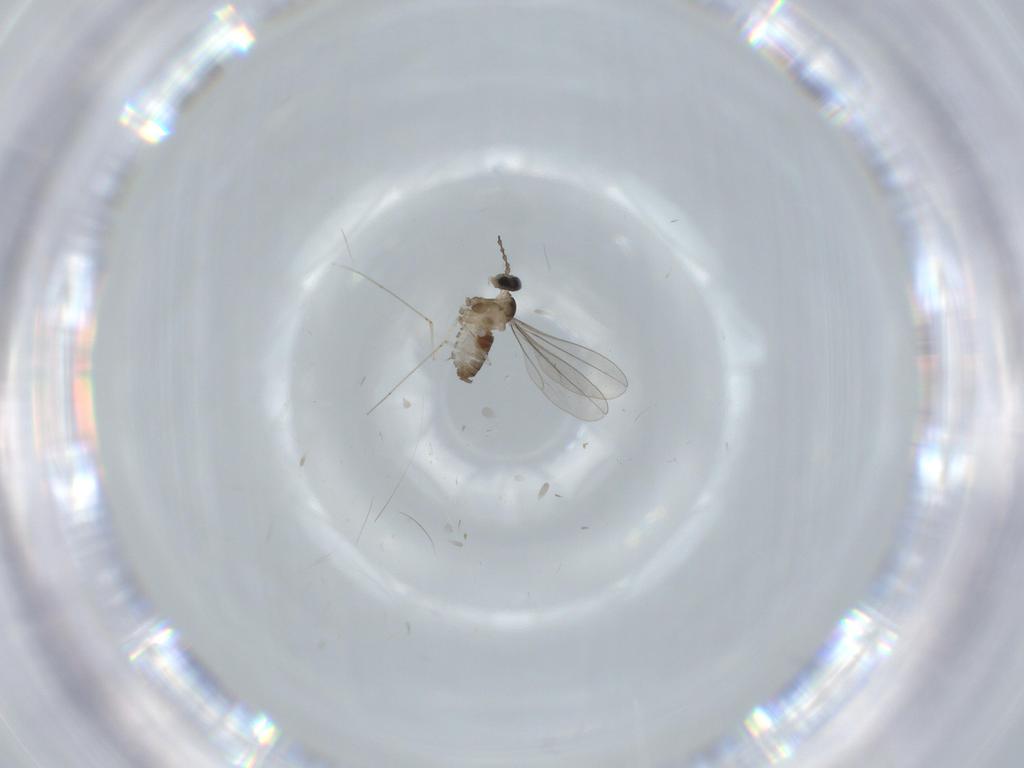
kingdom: Animalia
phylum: Arthropoda
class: Insecta
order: Diptera
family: Cecidomyiidae
